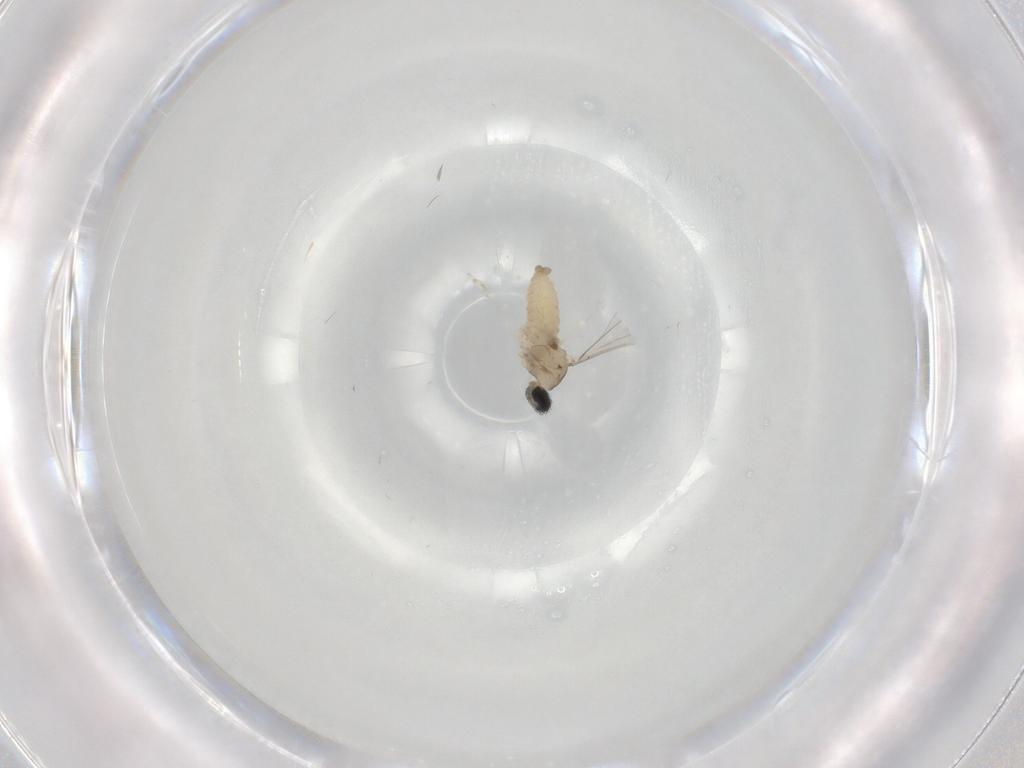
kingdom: Animalia
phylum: Arthropoda
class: Insecta
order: Diptera
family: Cecidomyiidae
